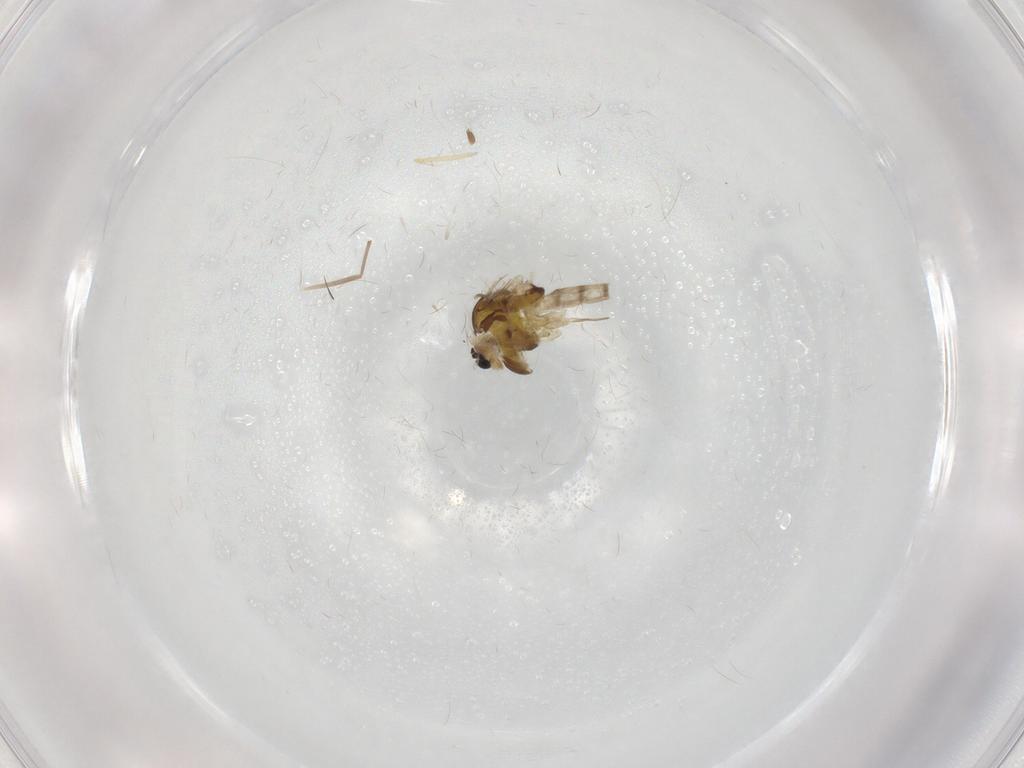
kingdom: Animalia
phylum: Arthropoda
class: Insecta
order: Diptera
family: Chironomidae
